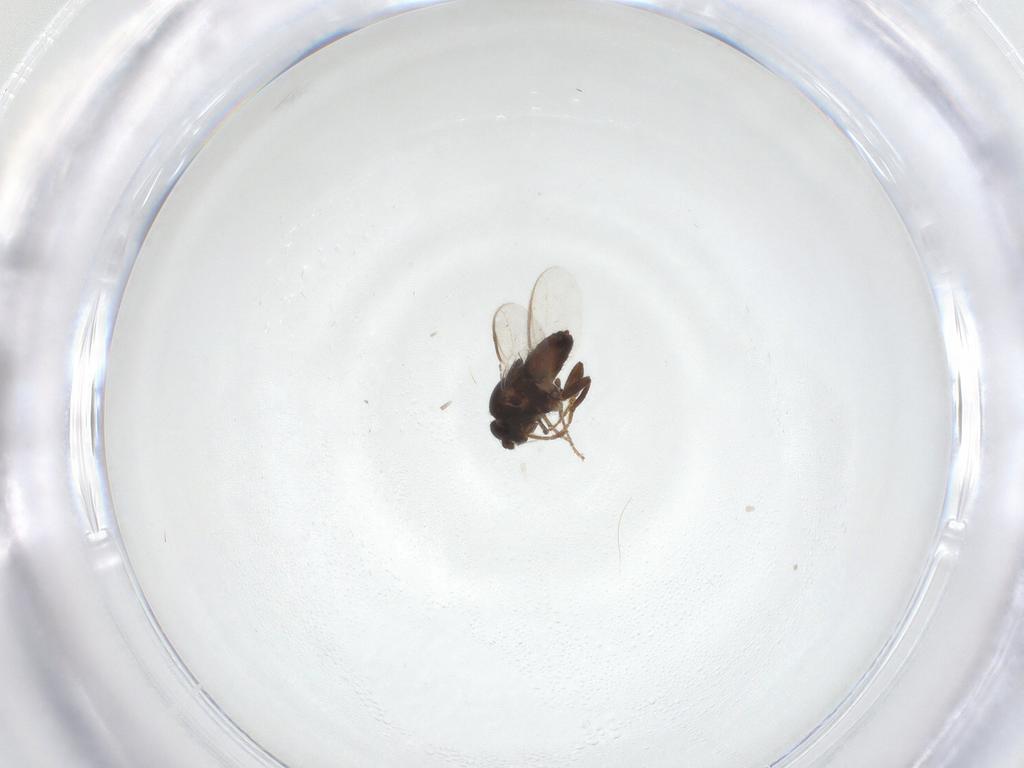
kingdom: Animalia
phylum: Arthropoda
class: Insecta
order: Diptera
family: Sphaeroceridae
